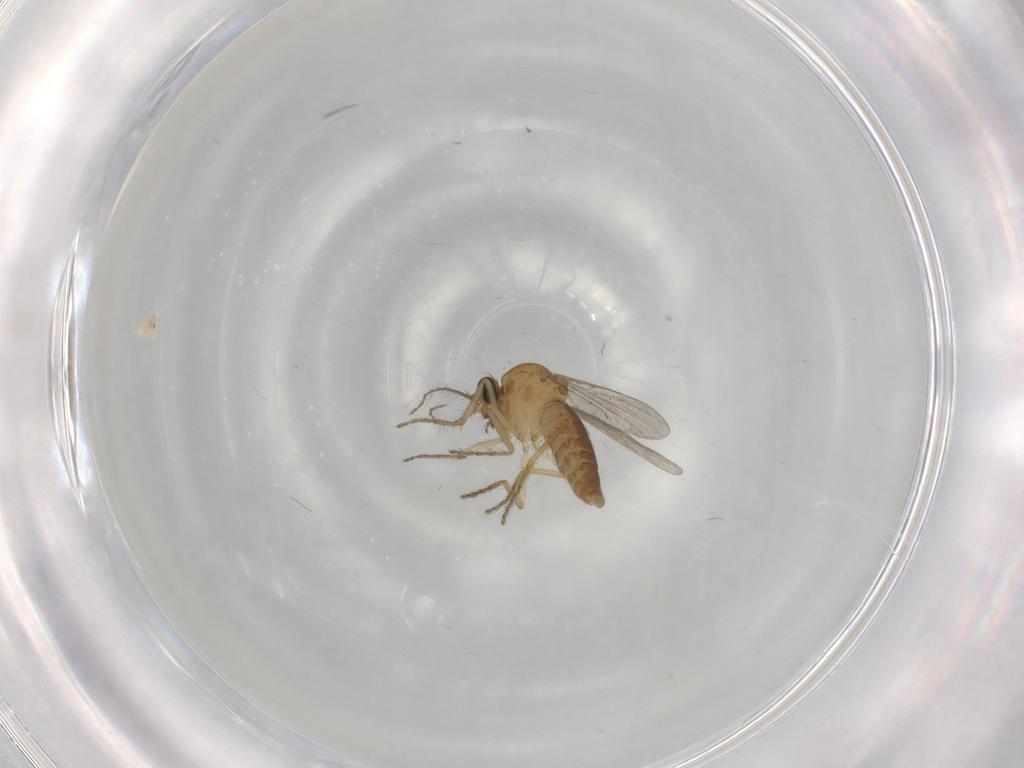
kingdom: Animalia
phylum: Arthropoda
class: Insecta
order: Diptera
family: Ceratopogonidae
